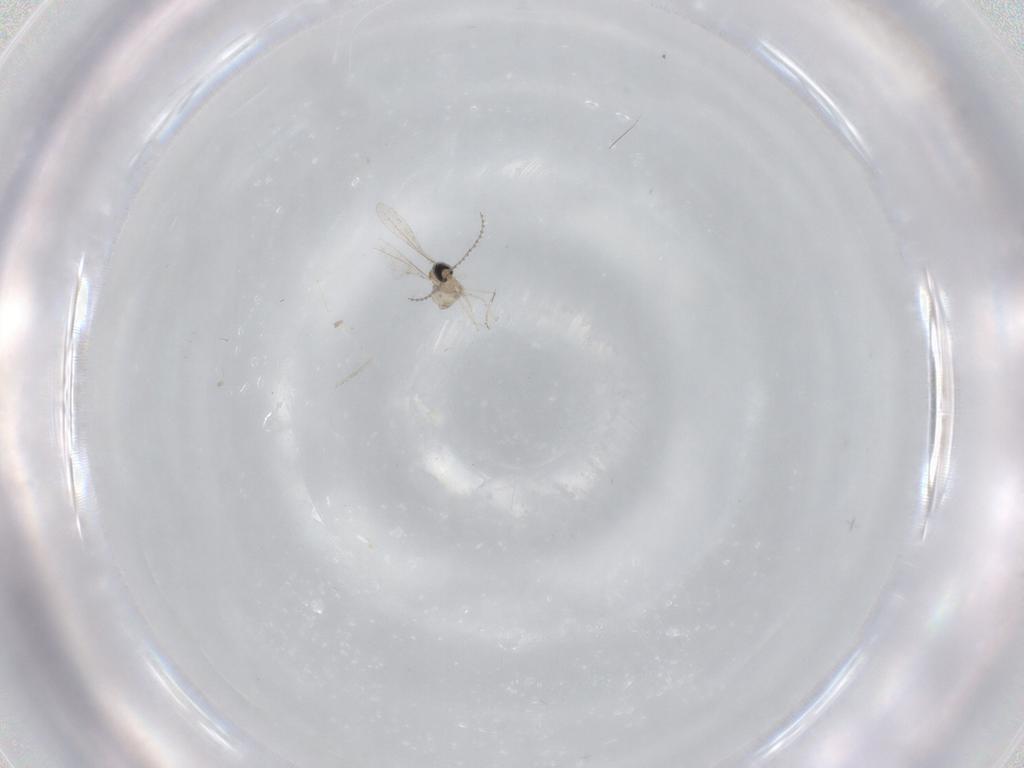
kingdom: Animalia
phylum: Arthropoda
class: Insecta
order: Diptera
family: Cecidomyiidae
